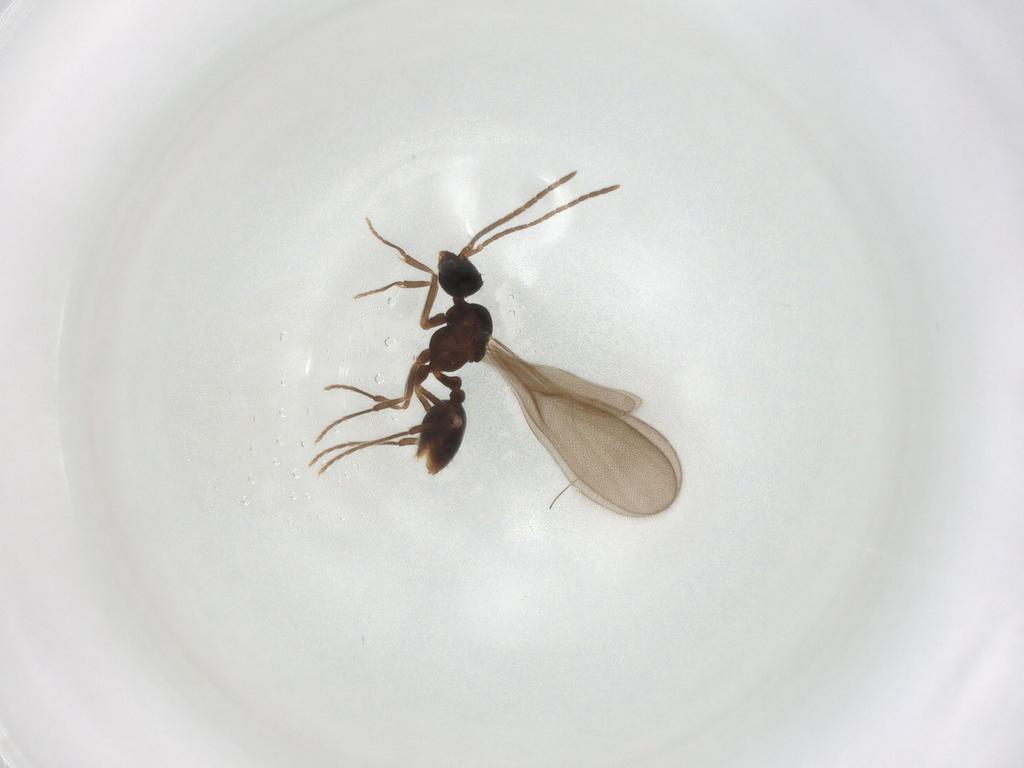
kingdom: Animalia
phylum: Arthropoda
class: Insecta
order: Hymenoptera
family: Formicidae
